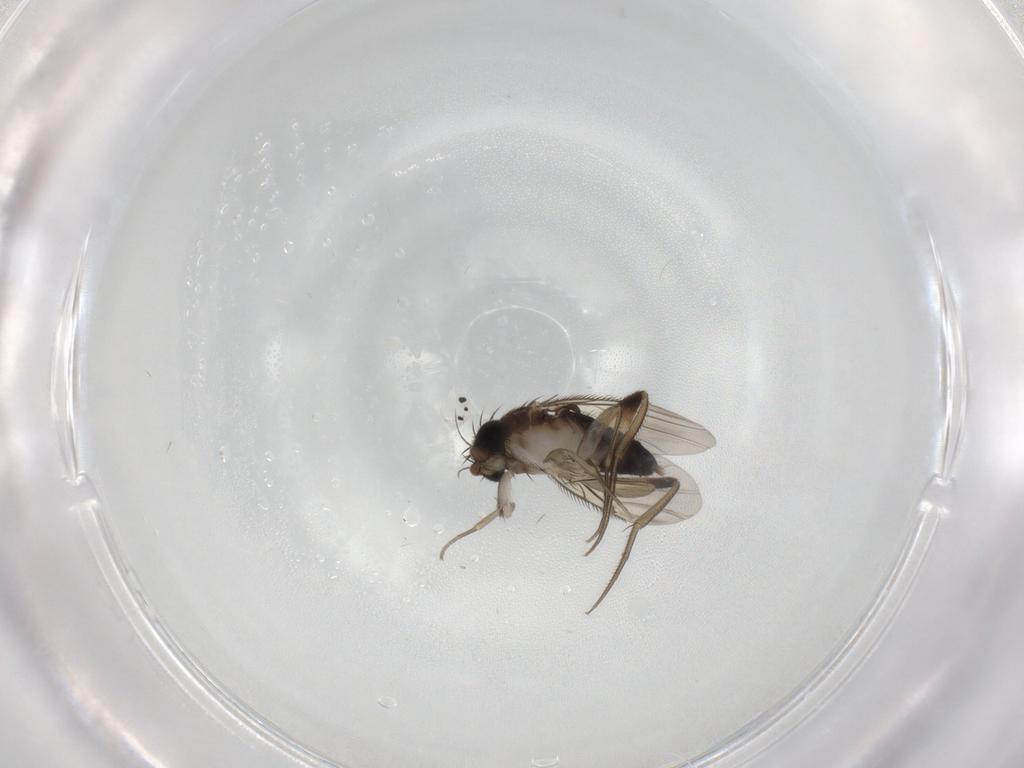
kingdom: Animalia
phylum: Arthropoda
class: Insecta
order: Diptera
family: Phoridae
